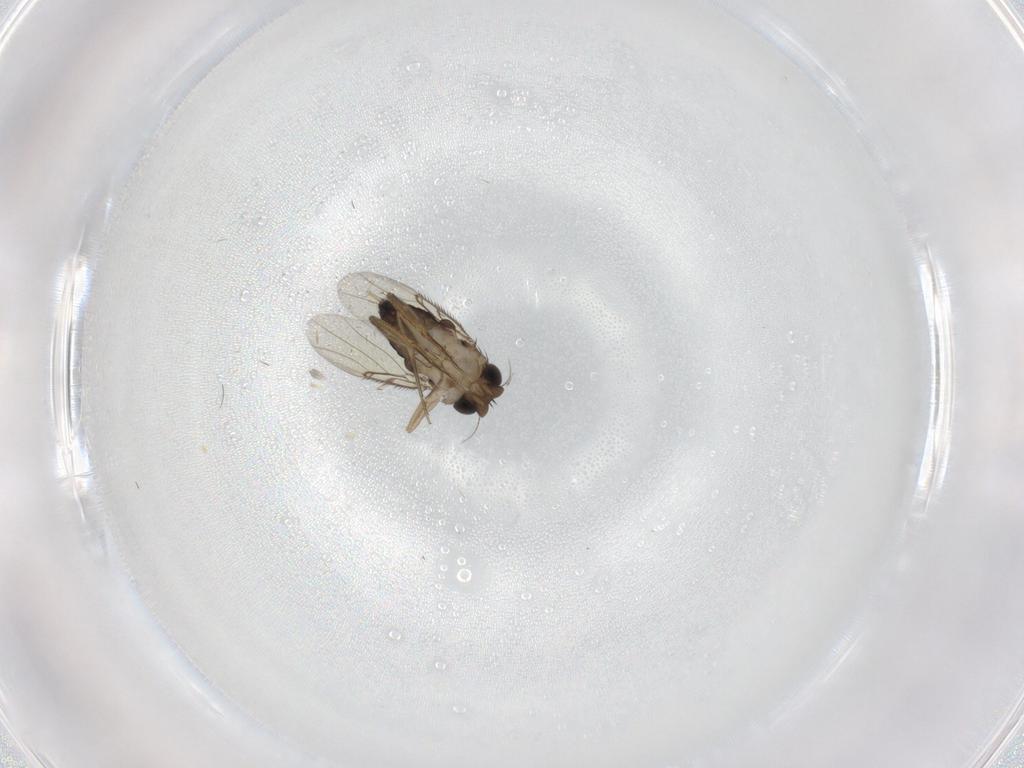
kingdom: Animalia
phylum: Arthropoda
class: Insecta
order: Diptera
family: Phoridae
